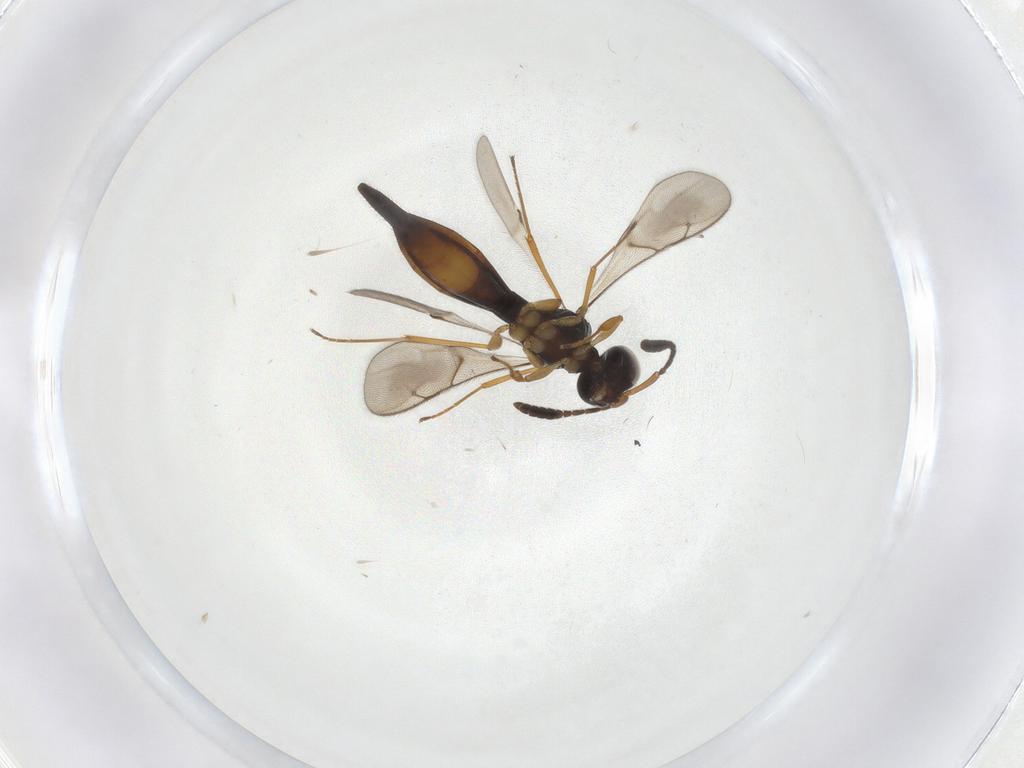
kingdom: Animalia
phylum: Arthropoda
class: Insecta
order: Hymenoptera
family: Scelionidae
